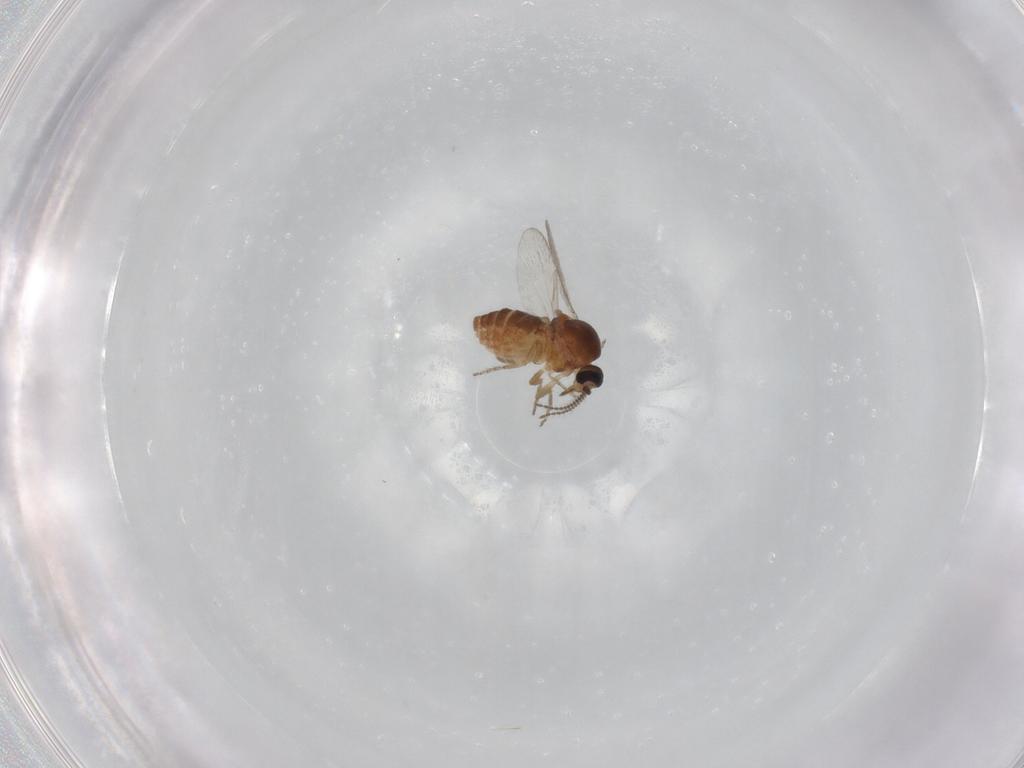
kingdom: Animalia
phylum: Arthropoda
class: Insecta
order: Diptera
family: Ceratopogonidae
